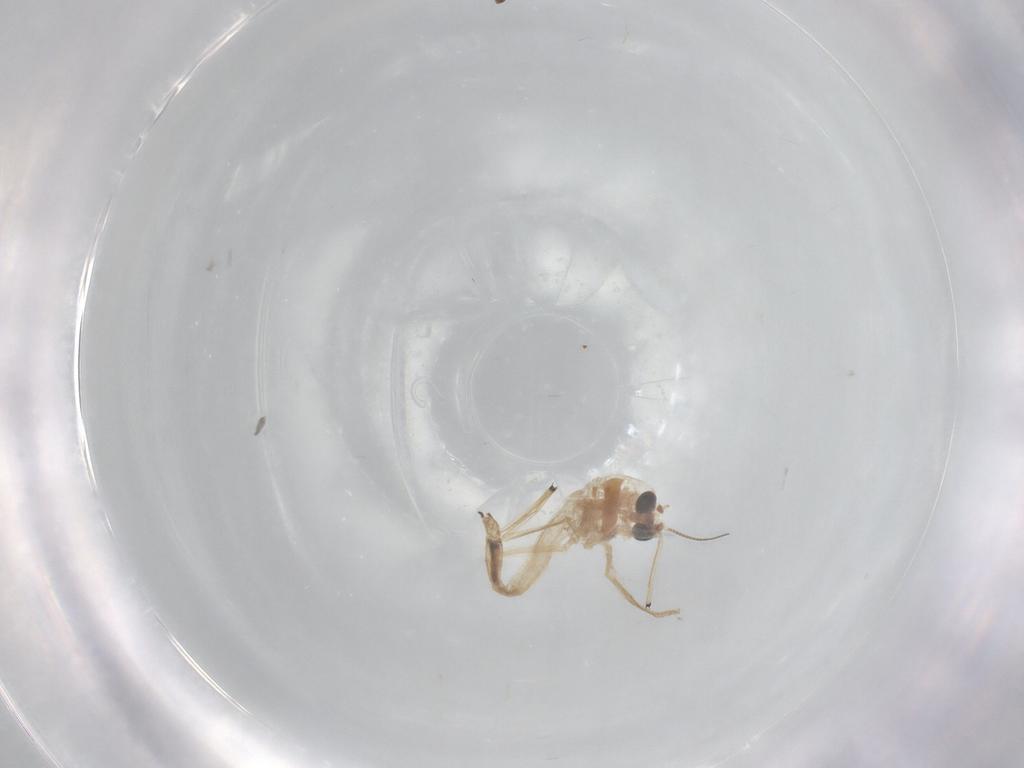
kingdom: Animalia
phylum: Arthropoda
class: Insecta
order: Diptera
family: Chironomidae
